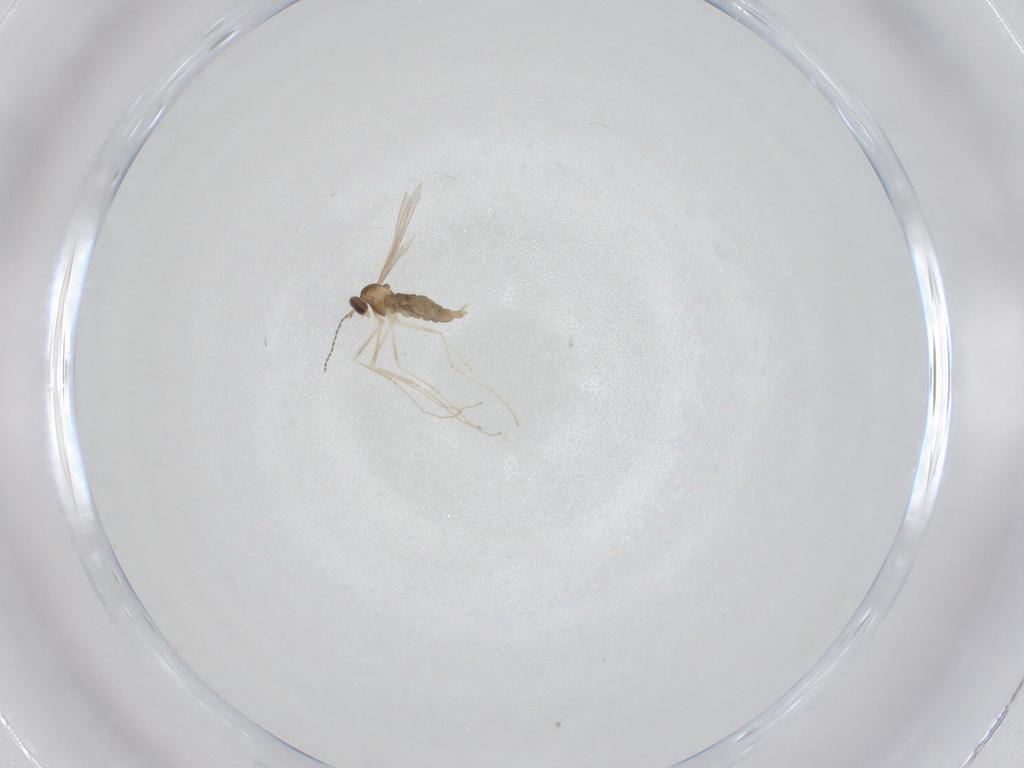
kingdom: Animalia
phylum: Arthropoda
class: Insecta
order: Diptera
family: Cecidomyiidae
